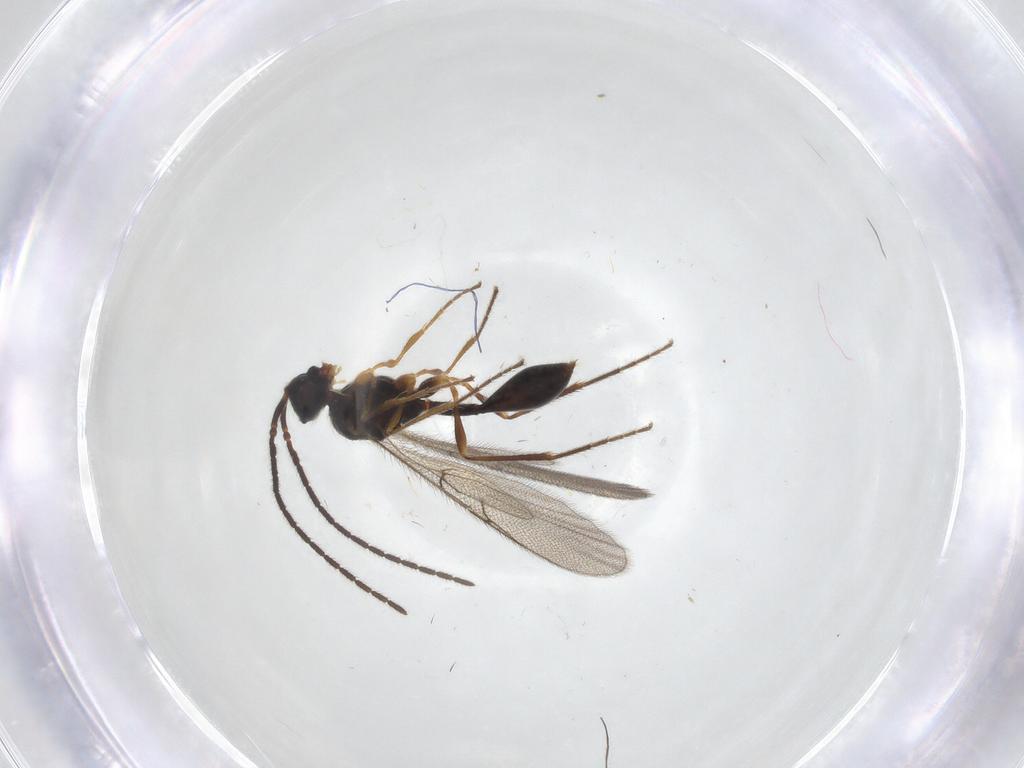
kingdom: Animalia
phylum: Arthropoda
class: Insecta
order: Hymenoptera
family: Diapriidae
